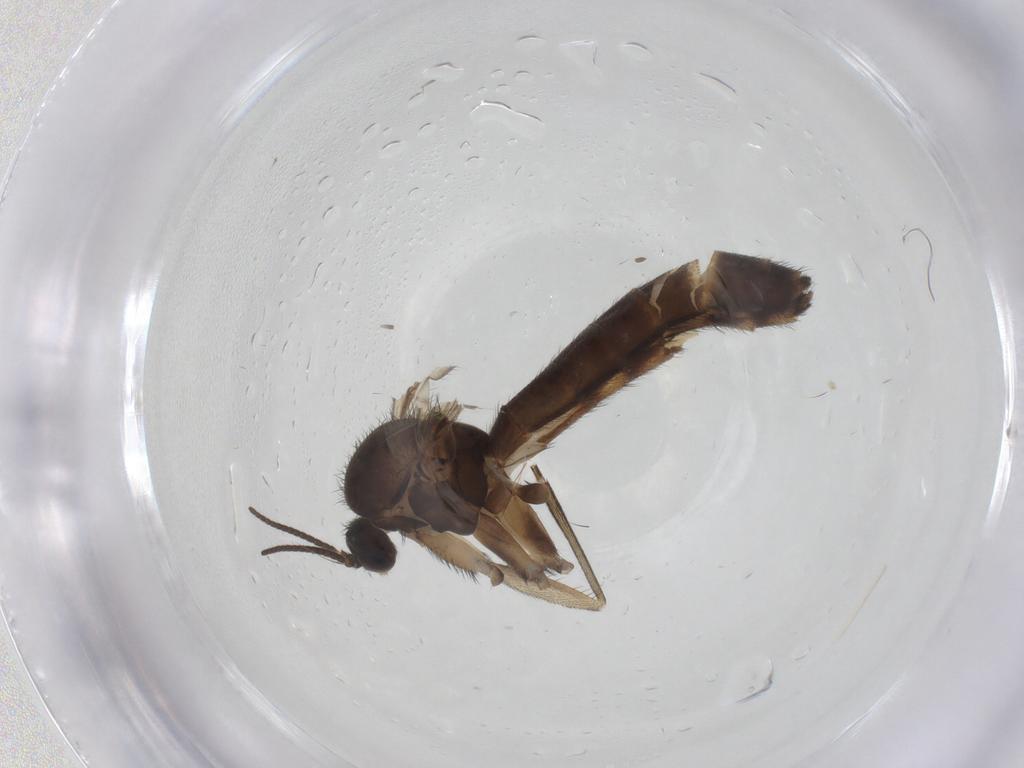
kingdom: Animalia
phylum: Arthropoda
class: Insecta
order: Diptera
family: Keroplatidae
